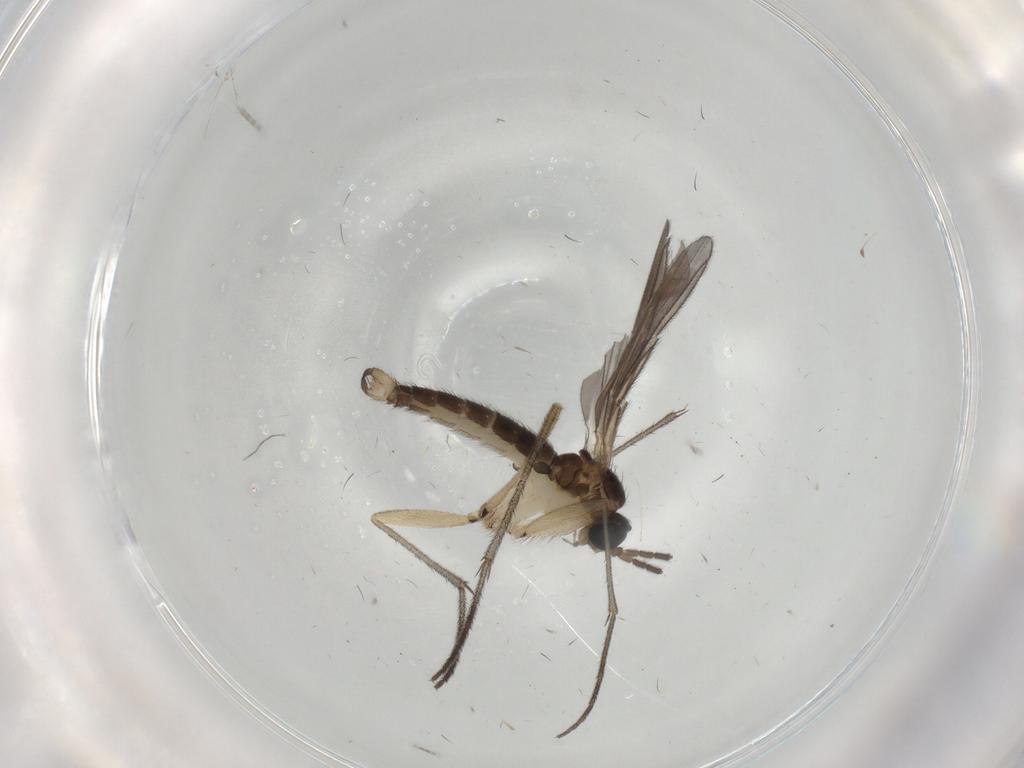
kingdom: Animalia
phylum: Arthropoda
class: Insecta
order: Diptera
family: Sciaridae
